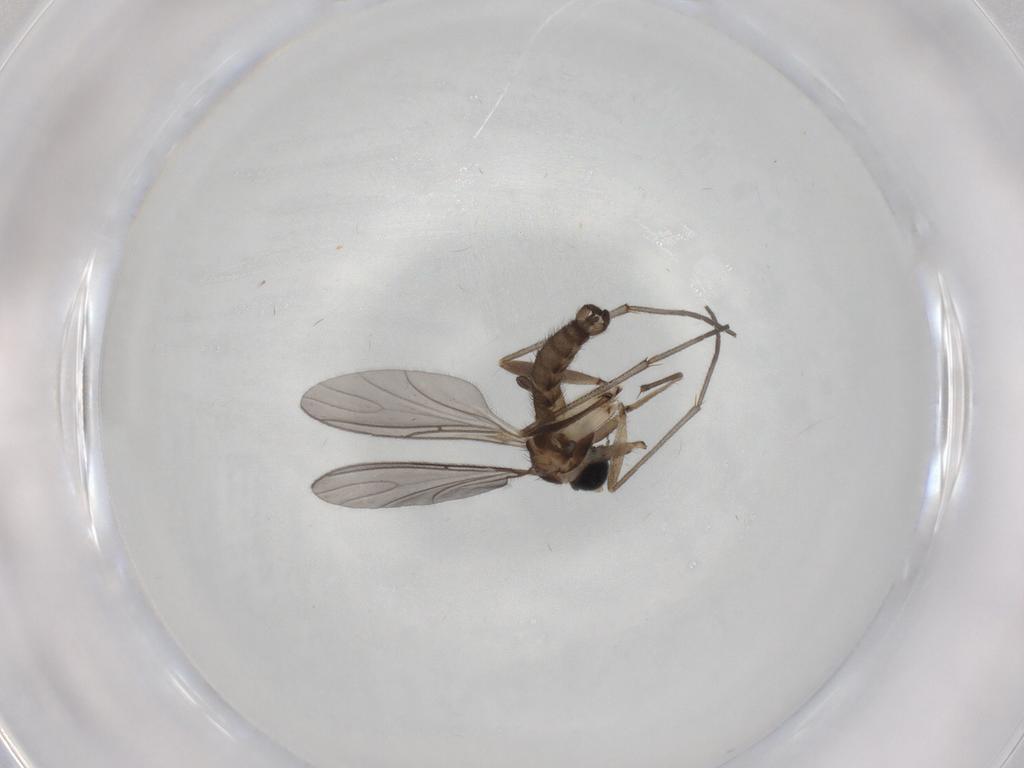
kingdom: Animalia
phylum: Arthropoda
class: Insecta
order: Diptera
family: Sciaridae
